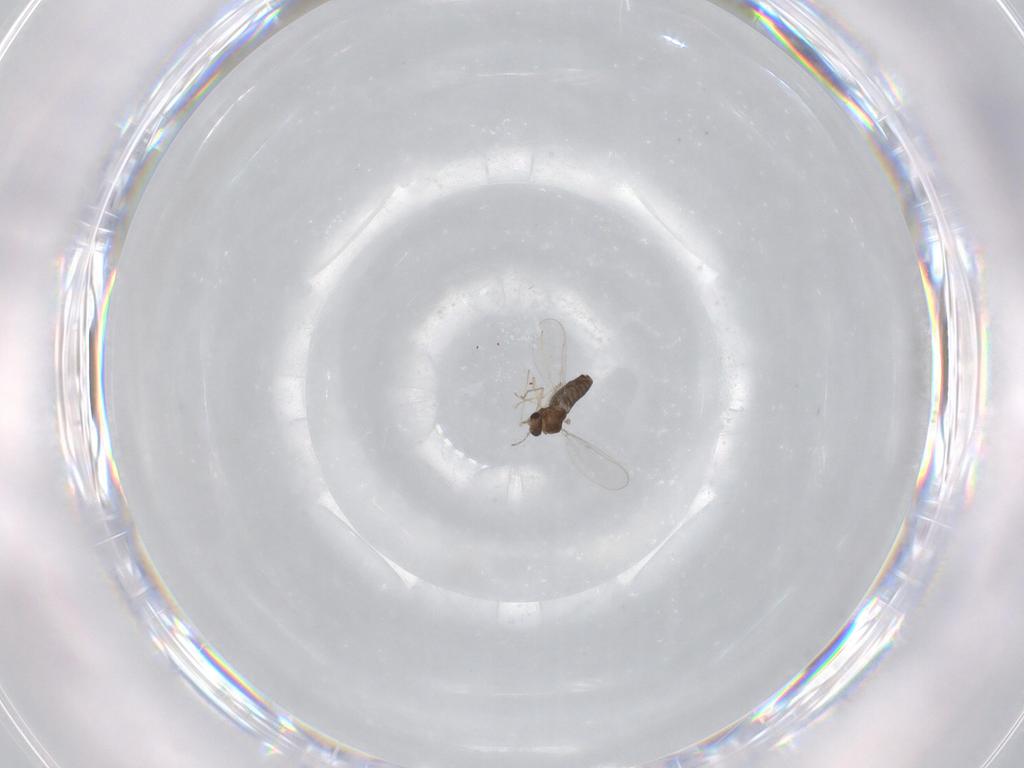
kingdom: Animalia
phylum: Arthropoda
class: Insecta
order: Diptera
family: Chironomidae
